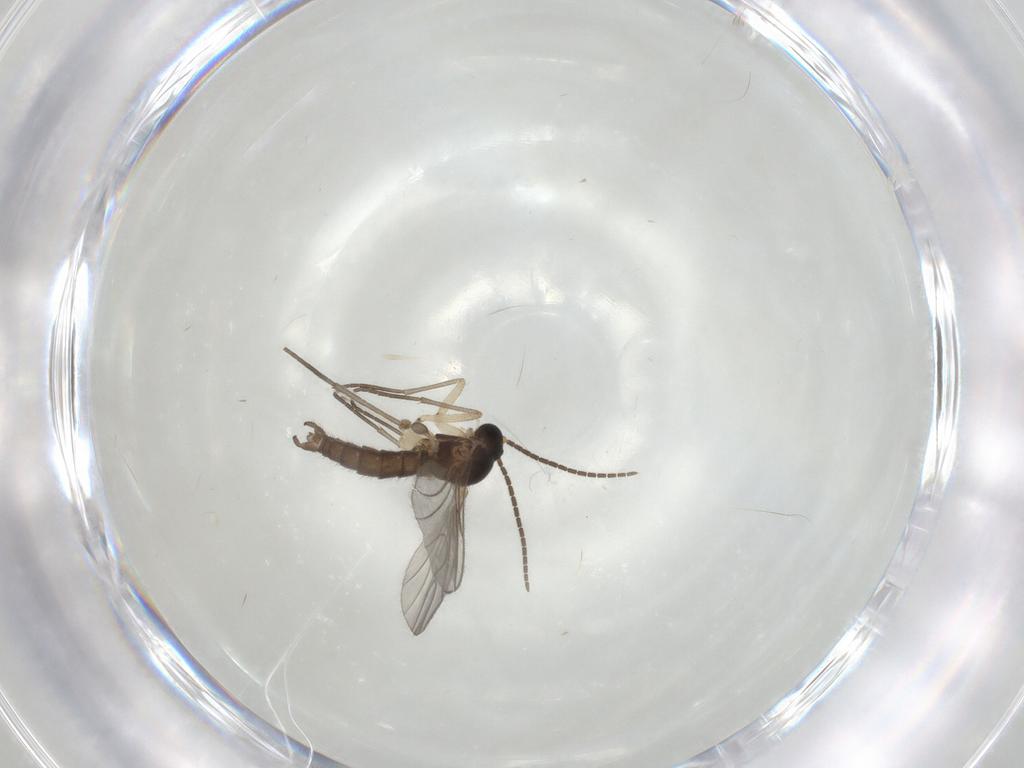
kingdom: Animalia
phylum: Arthropoda
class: Insecta
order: Diptera
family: Sciaridae
